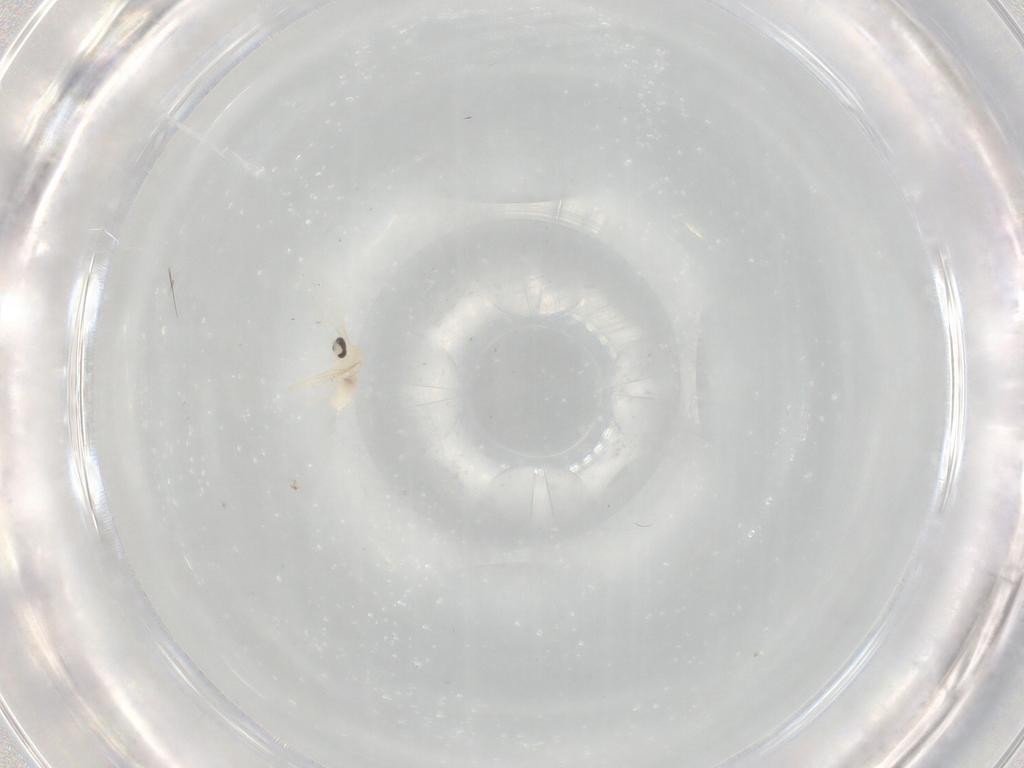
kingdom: Animalia
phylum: Arthropoda
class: Insecta
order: Diptera
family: Cecidomyiidae
